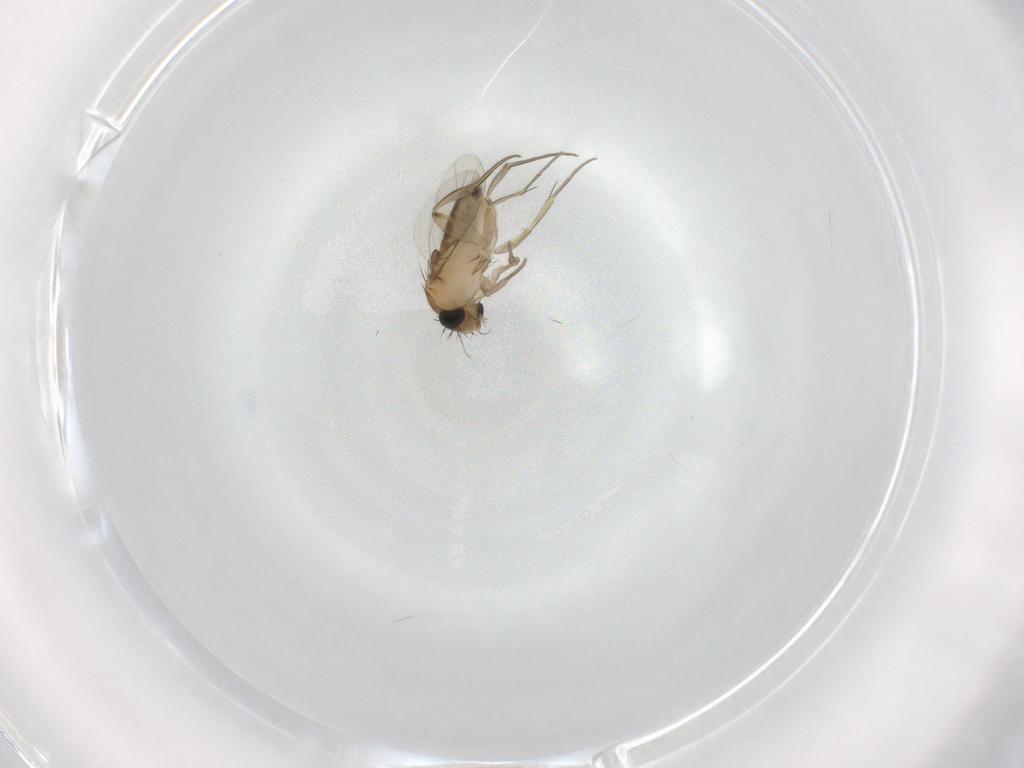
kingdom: Animalia
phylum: Arthropoda
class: Insecta
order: Diptera
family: Phoridae
